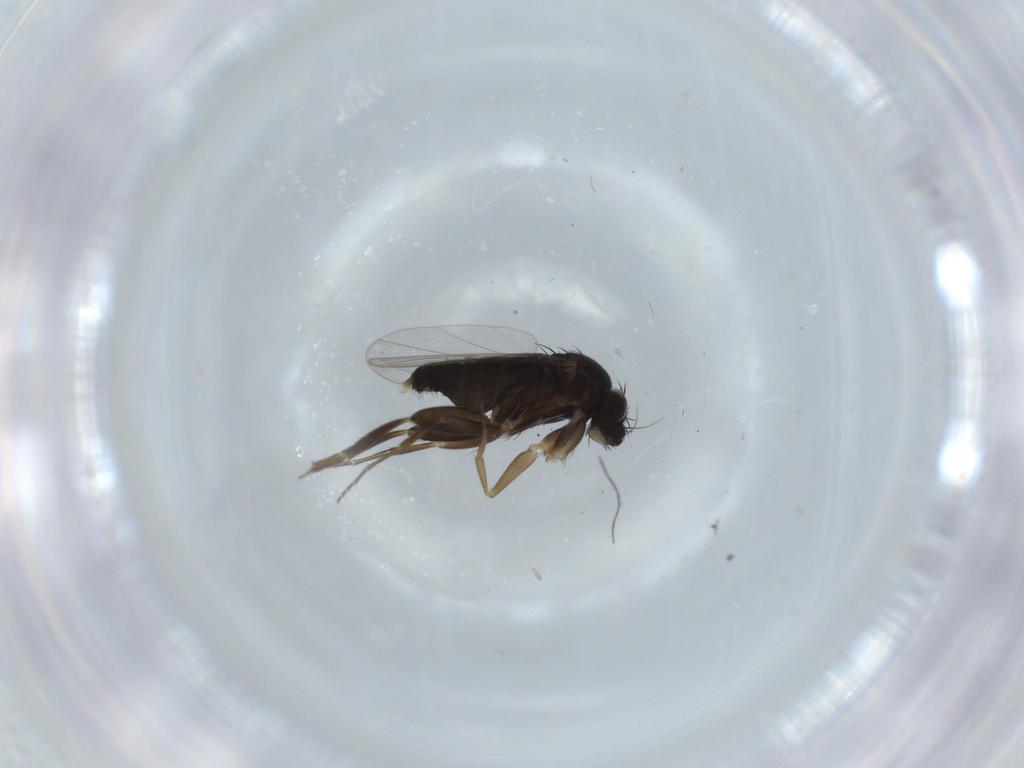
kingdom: Animalia
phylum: Arthropoda
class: Insecta
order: Diptera
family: Phoridae
